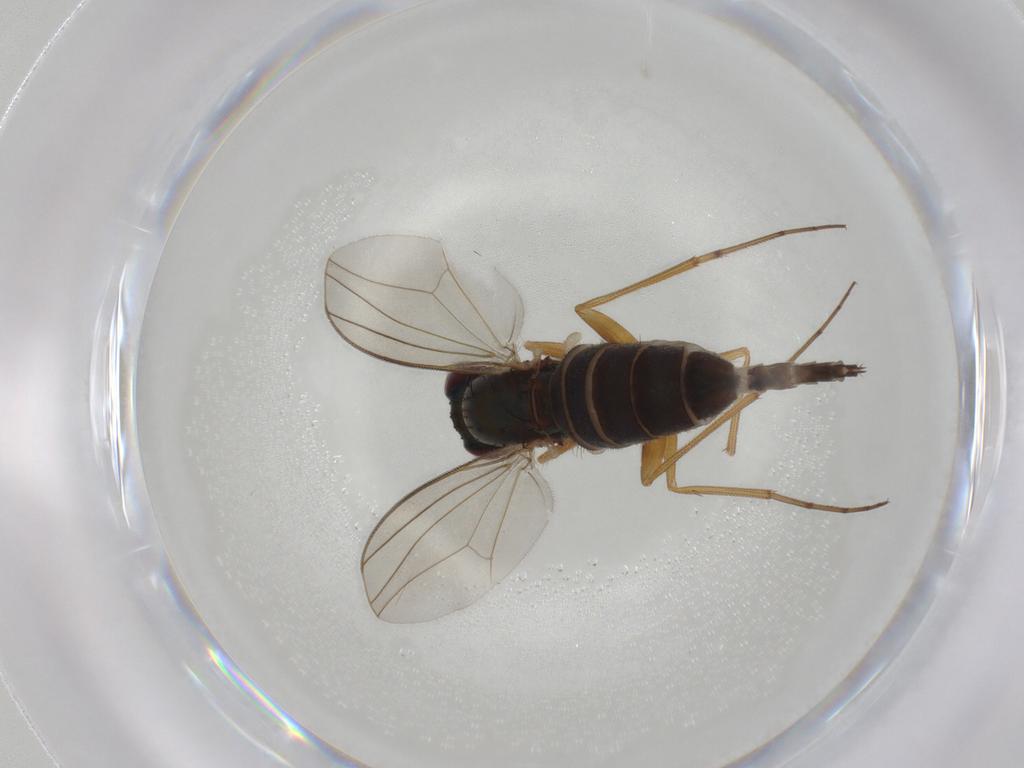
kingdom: Animalia
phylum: Arthropoda
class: Insecta
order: Diptera
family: Dolichopodidae
